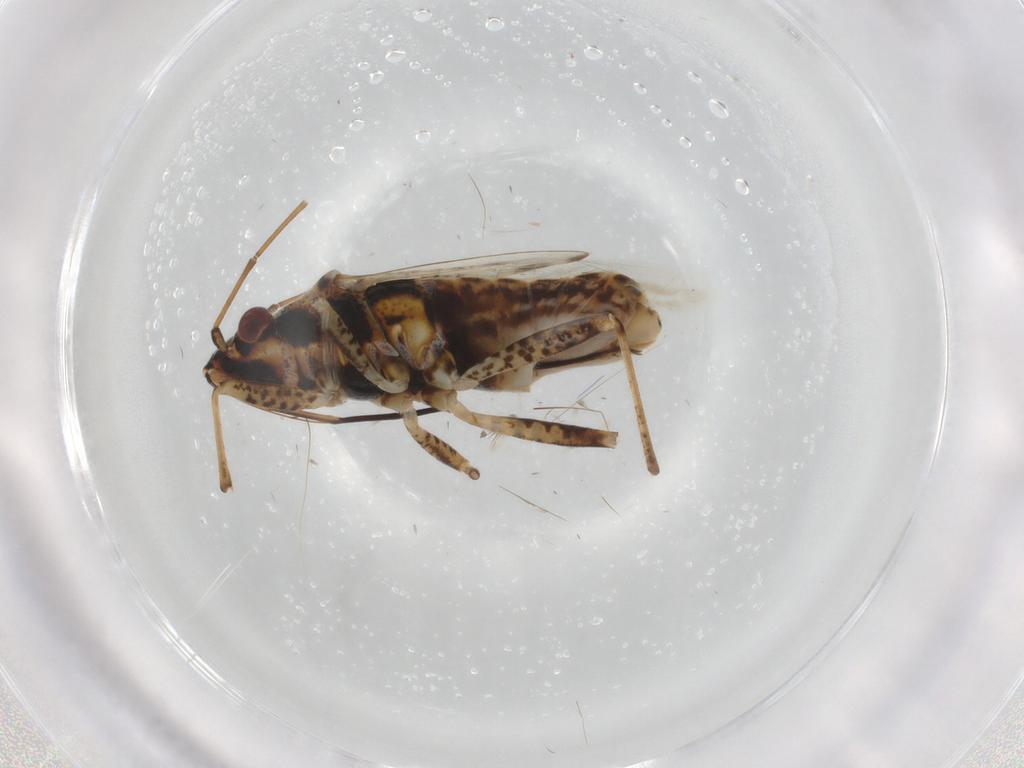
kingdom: Animalia
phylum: Arthropoda
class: Insecta
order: Hemiptera
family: Lygaeidae
